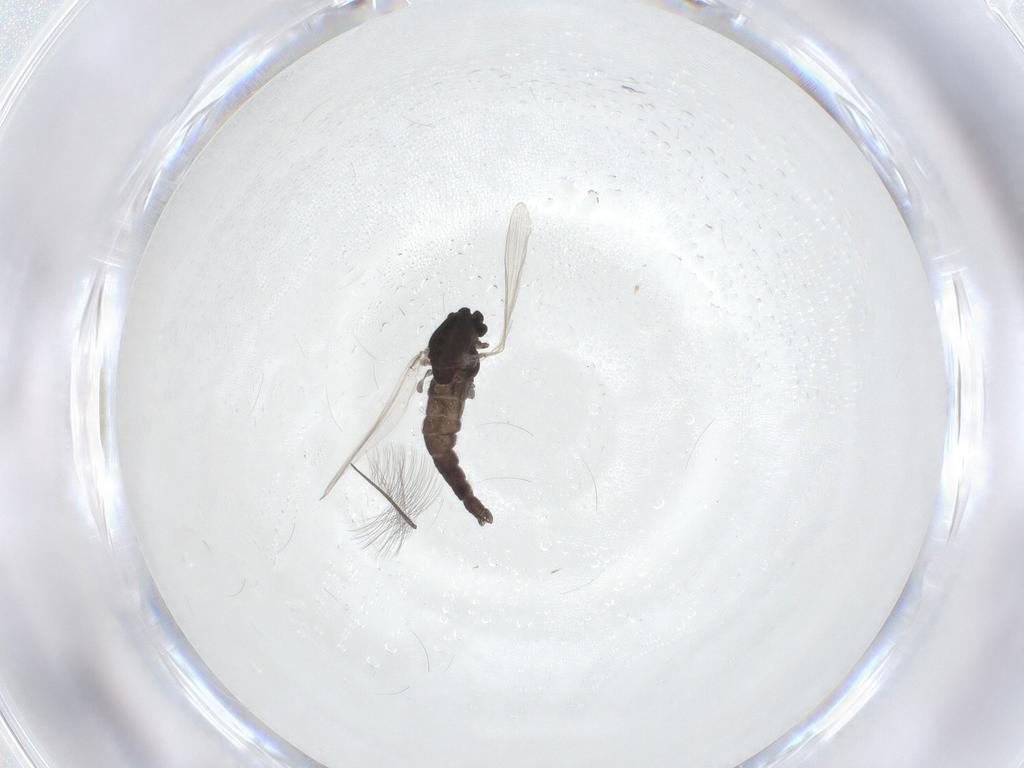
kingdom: Animalia
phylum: Arthropoda
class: Insecta
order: Diptera
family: Chironomidae
